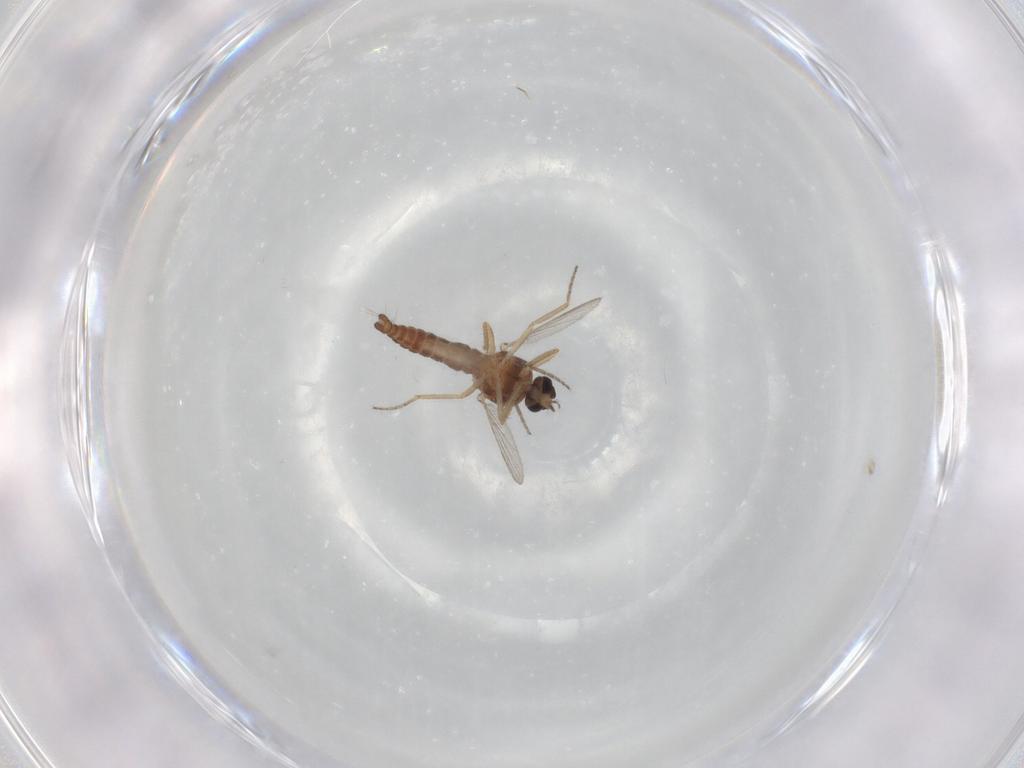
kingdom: Animalia
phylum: Arthropoda
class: Insecta
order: Diptera
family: Ceratopogonidae
